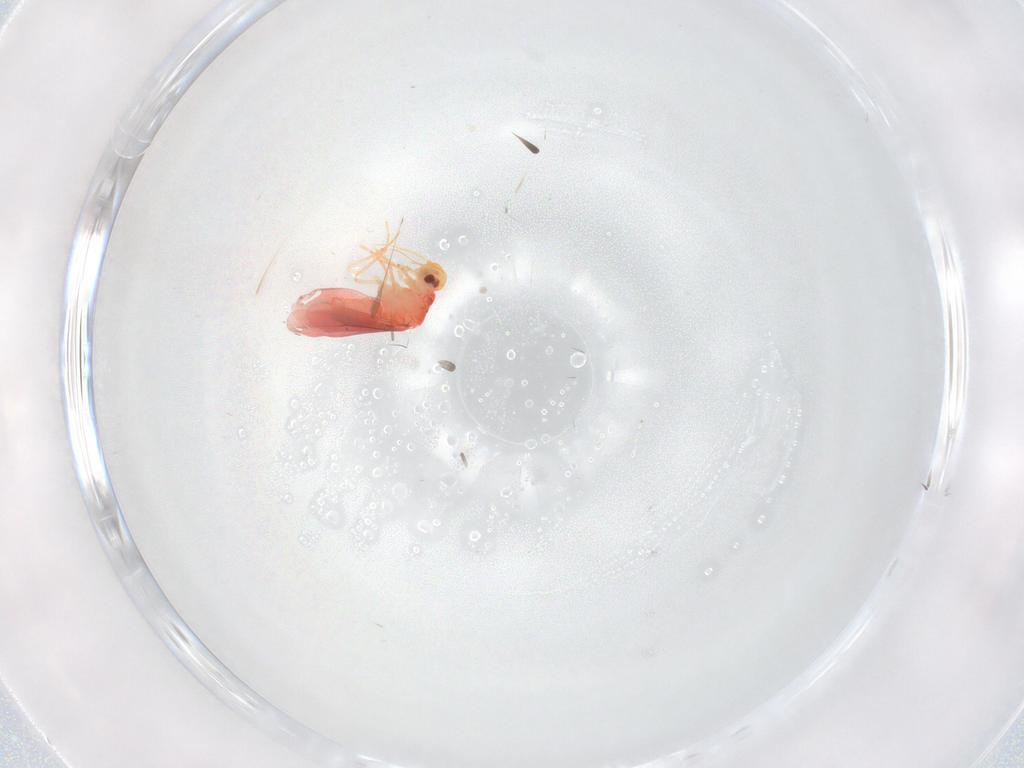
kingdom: Animalia
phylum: Arthropoda
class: Insecta
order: Hemiptera
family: Aleyrodidae
